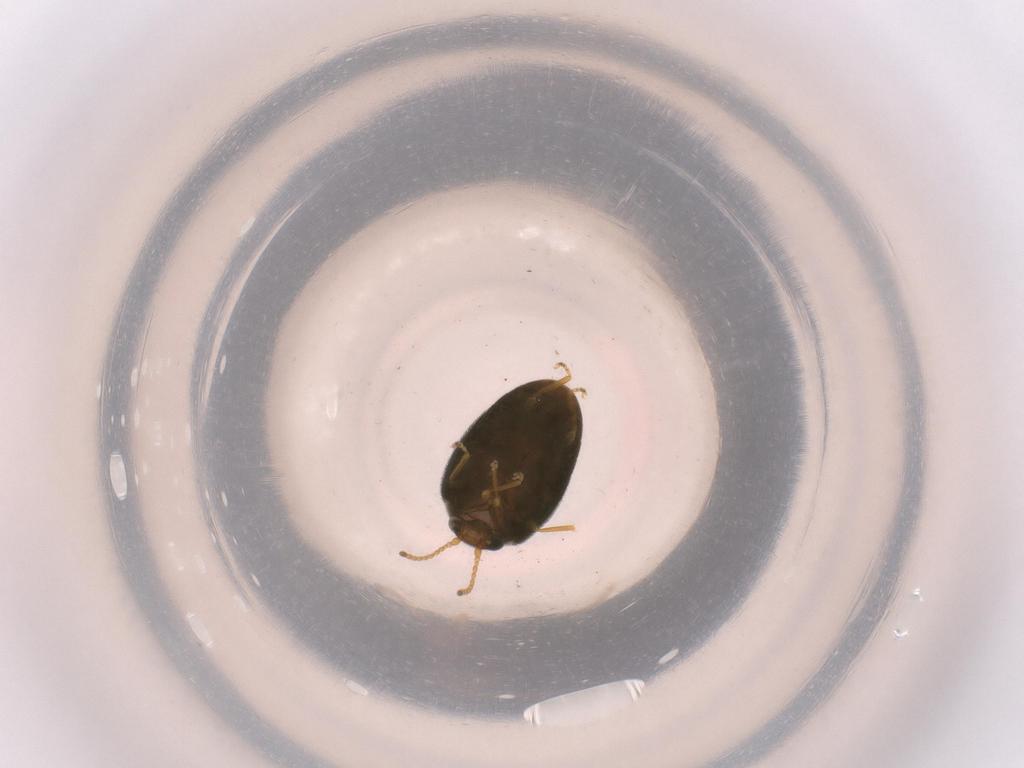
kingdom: Animalia
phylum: Arthropoda
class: Insecta
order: Coleoptera
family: Scirtidae
